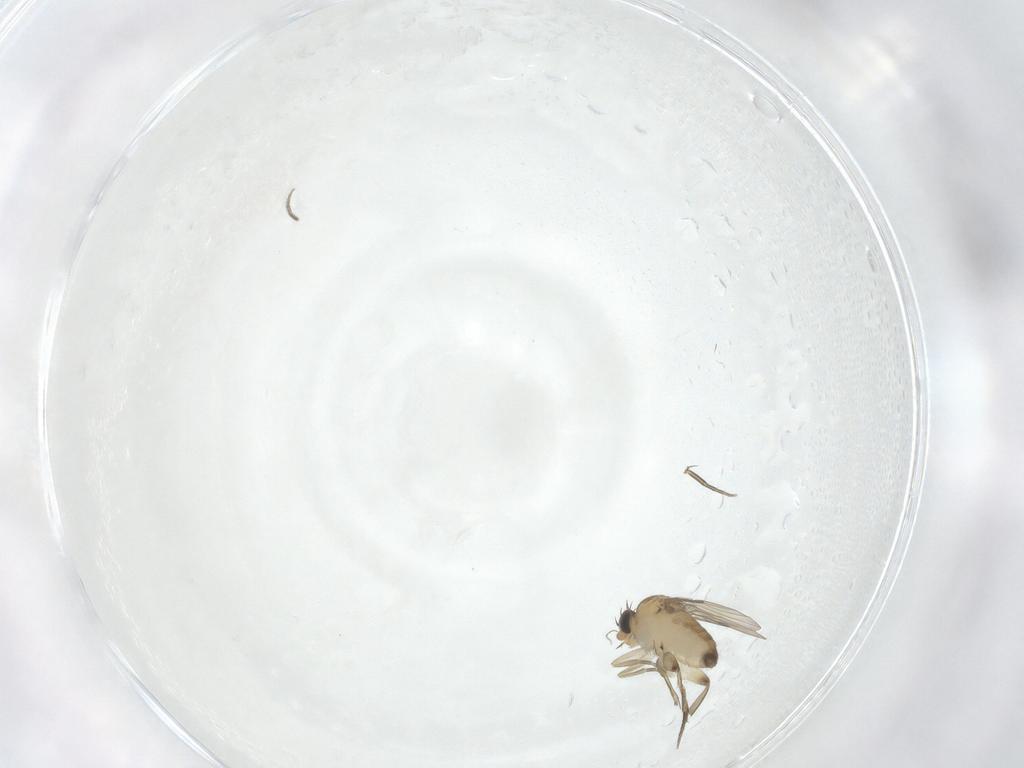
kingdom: Animalia
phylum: Arthropoda
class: Insecta
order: Diptera
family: Phoridae
